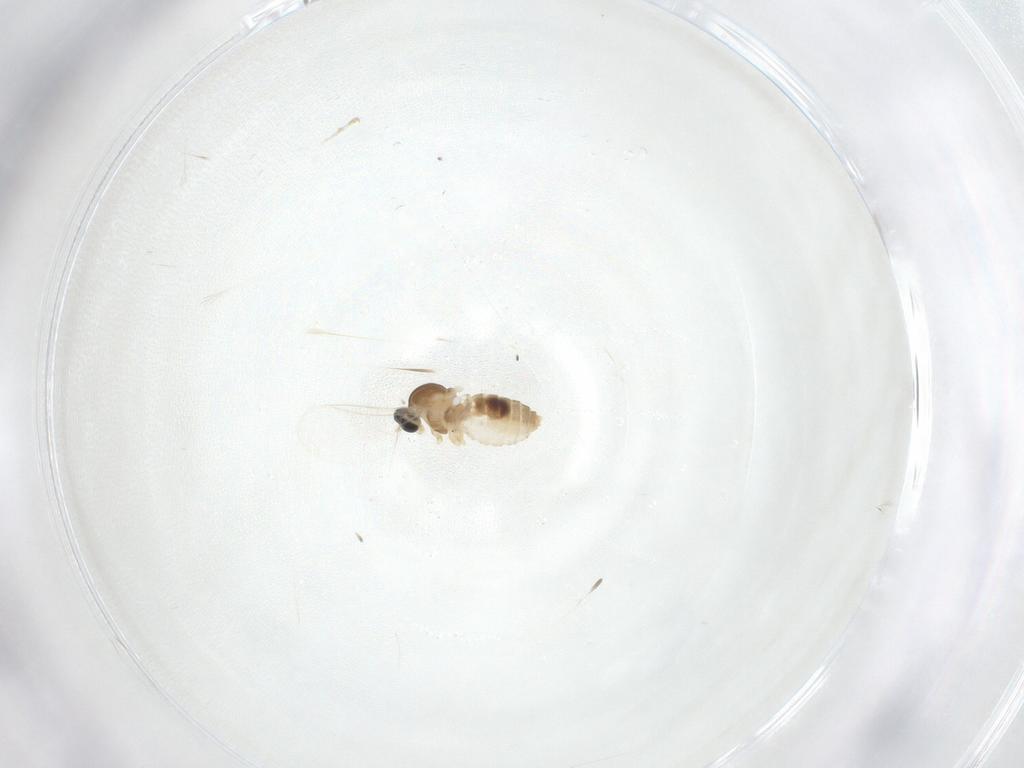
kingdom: Animalia
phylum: Arthropoda
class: Insecta
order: Diptera
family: Cecidomyiidae
